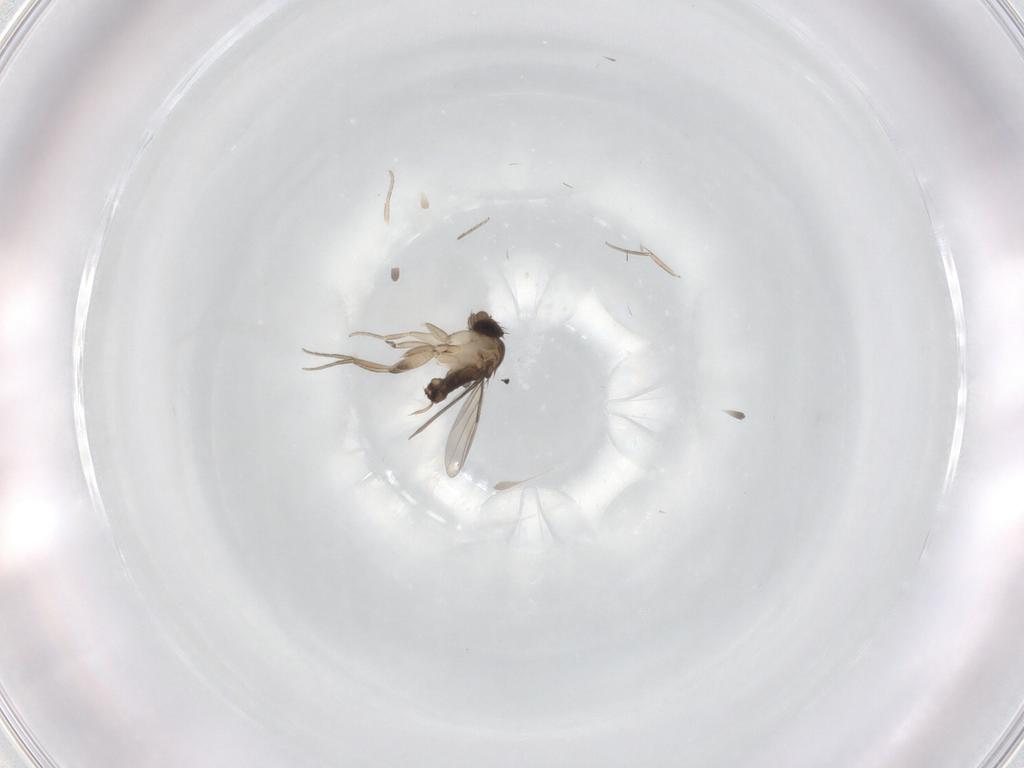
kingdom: Animalia
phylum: Arthropoda
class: Insecta
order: Diptera
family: Phoridae
